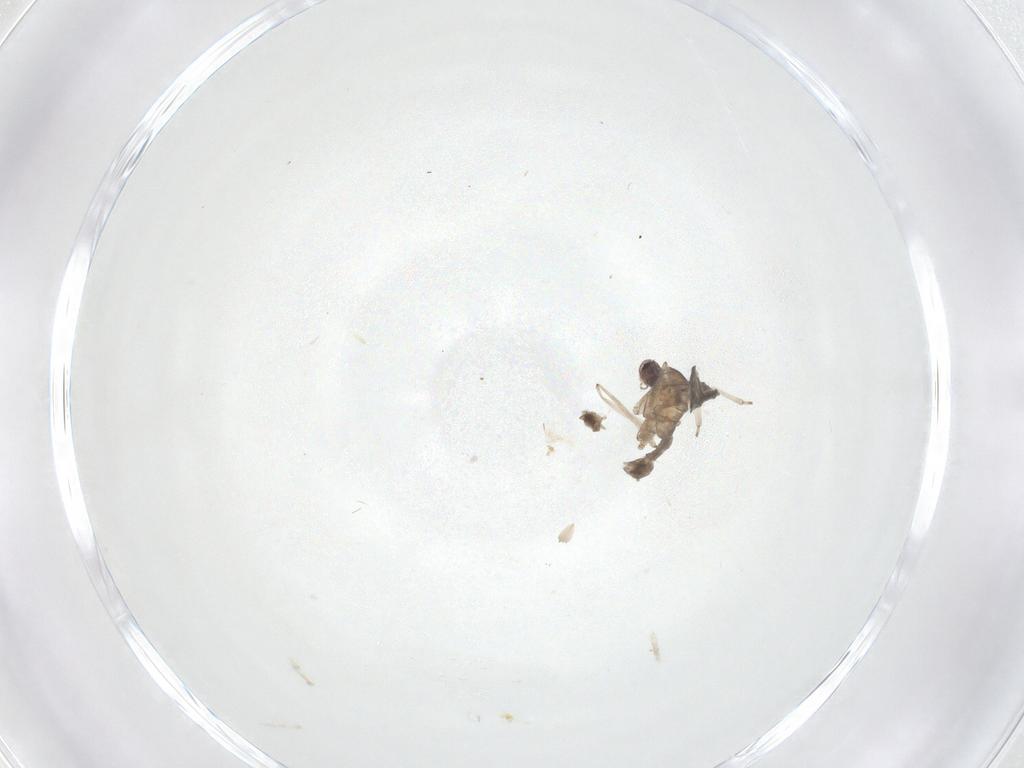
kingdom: Animalia
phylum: Arthropoda
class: Insecta
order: Diptera
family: Cecidomyiidae
